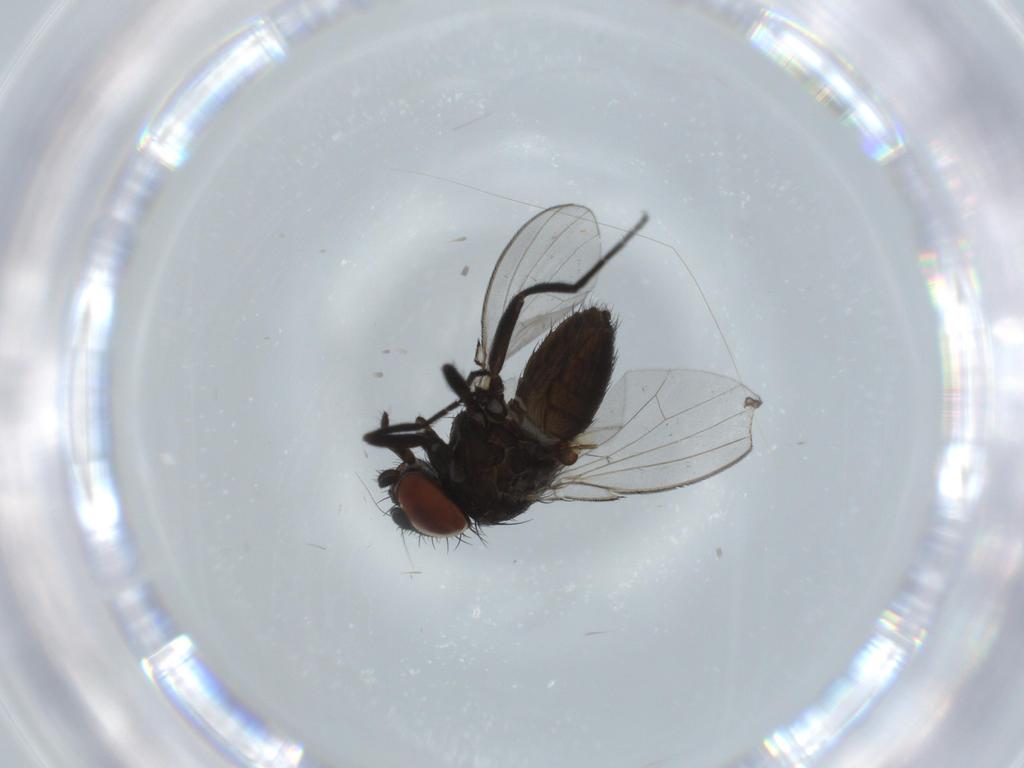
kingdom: Animalia
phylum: Arthropoda
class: Insecta
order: Diptera
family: Milichiidae
